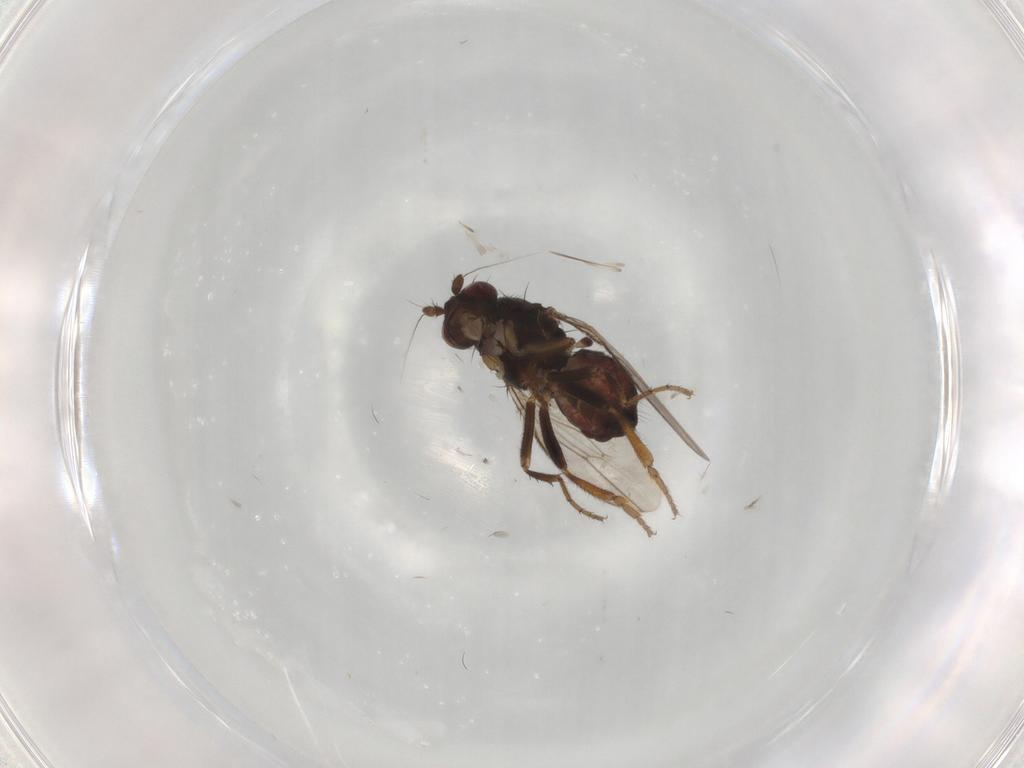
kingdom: Animalia
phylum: Arthropoda
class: Insecta
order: Diptera
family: Sphaeroceridae
